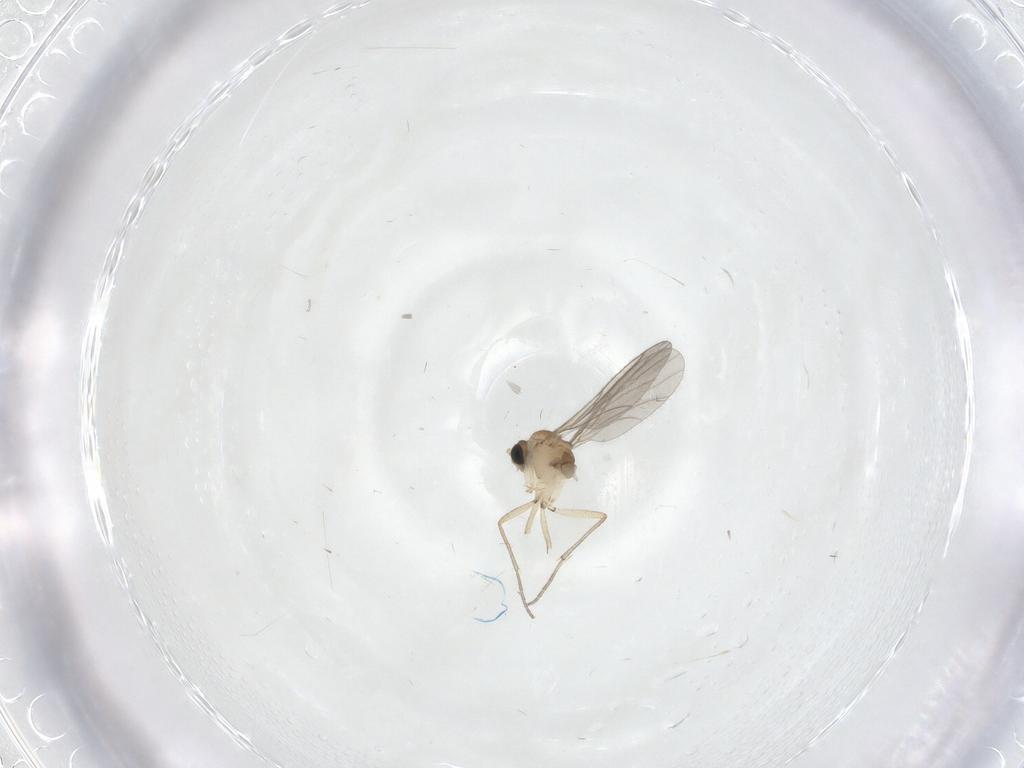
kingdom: Animalia
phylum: Arthropoda
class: Insecta
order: Diptera
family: Sciaridae
